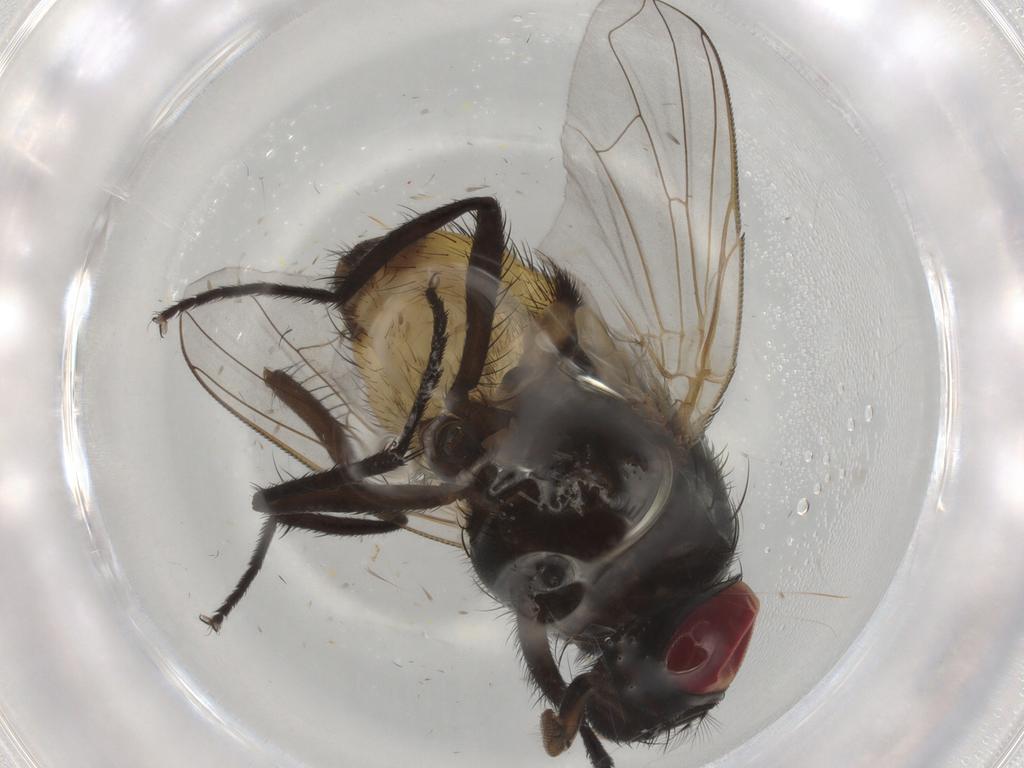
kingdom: Animalia
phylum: Arthropoda
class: Insecta
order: Diptera
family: Muscidae
